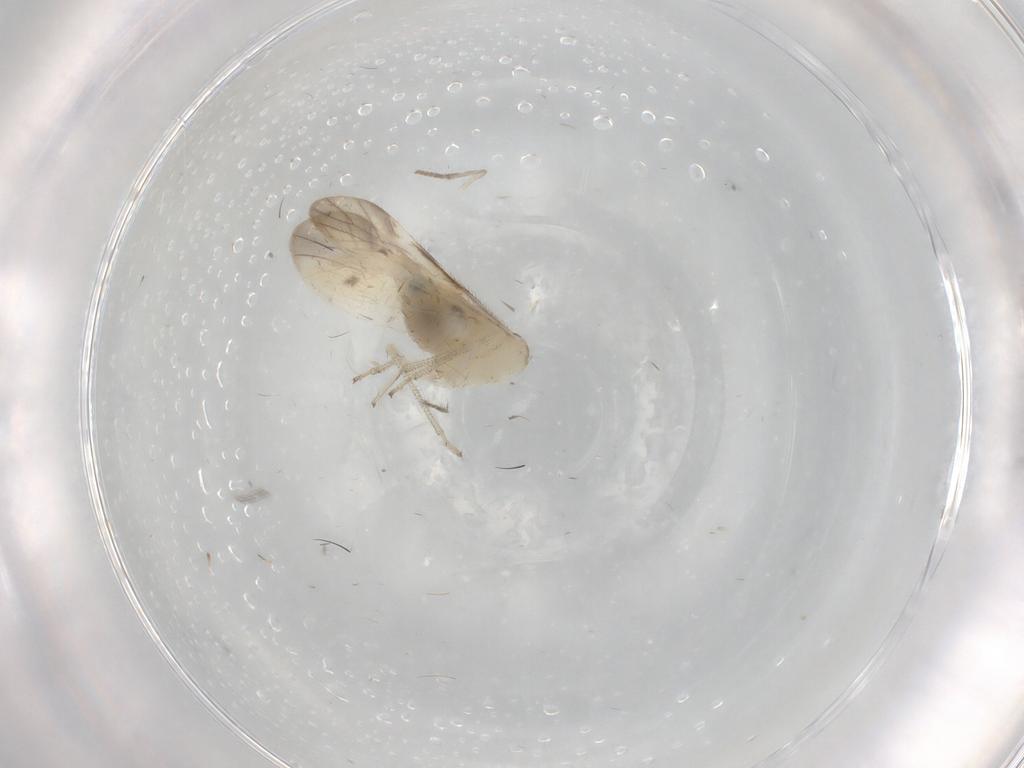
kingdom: Animalia
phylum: Arthropoda
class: Insecta
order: Psocodea
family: Caeciliusidae
